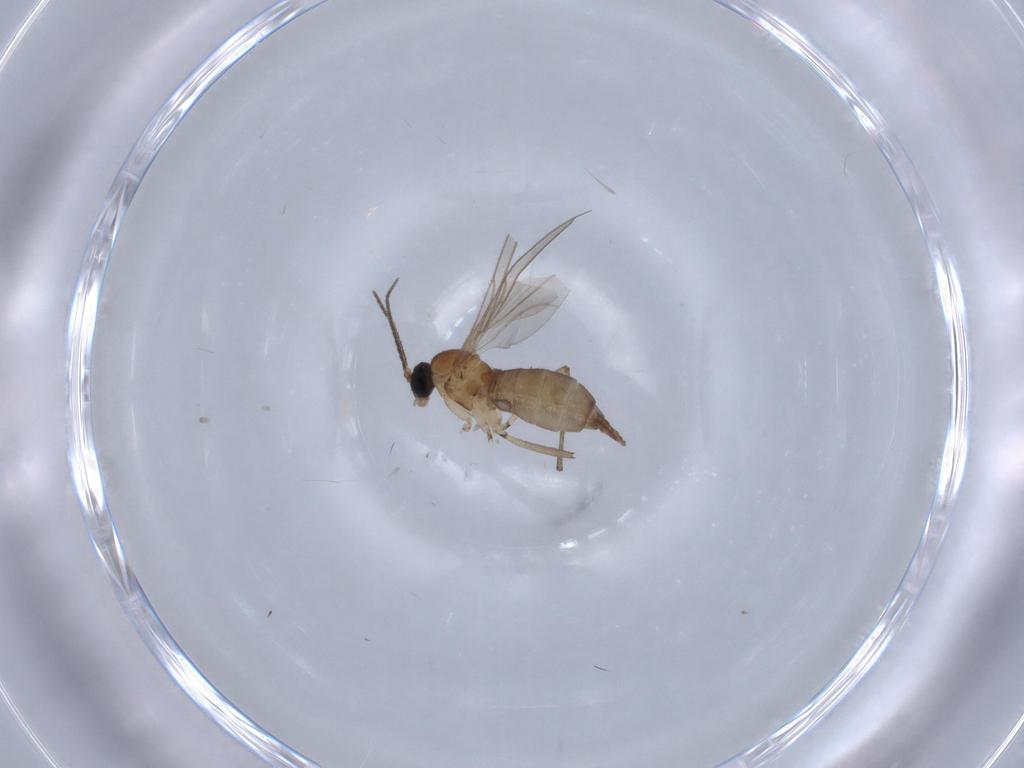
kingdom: Animalia
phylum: Arthropoda
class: Insecta
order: Diptera
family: Sciaridae
